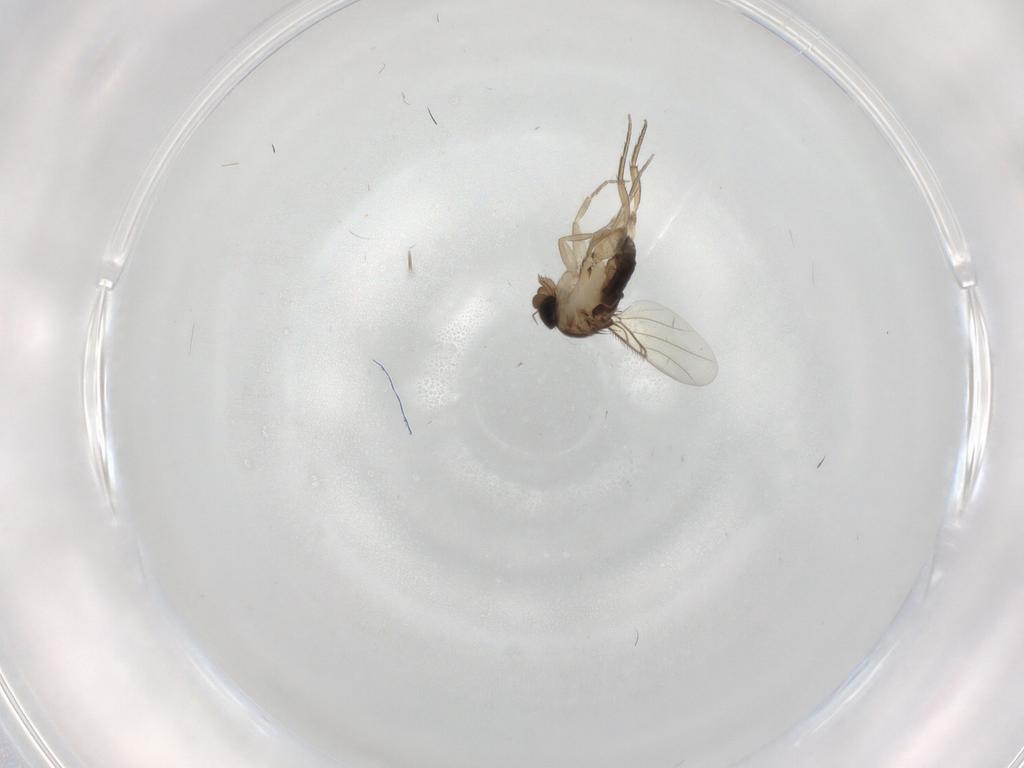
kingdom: Animalia
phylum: Arthropoda
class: Insecta
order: Diptera
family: Phoridae
